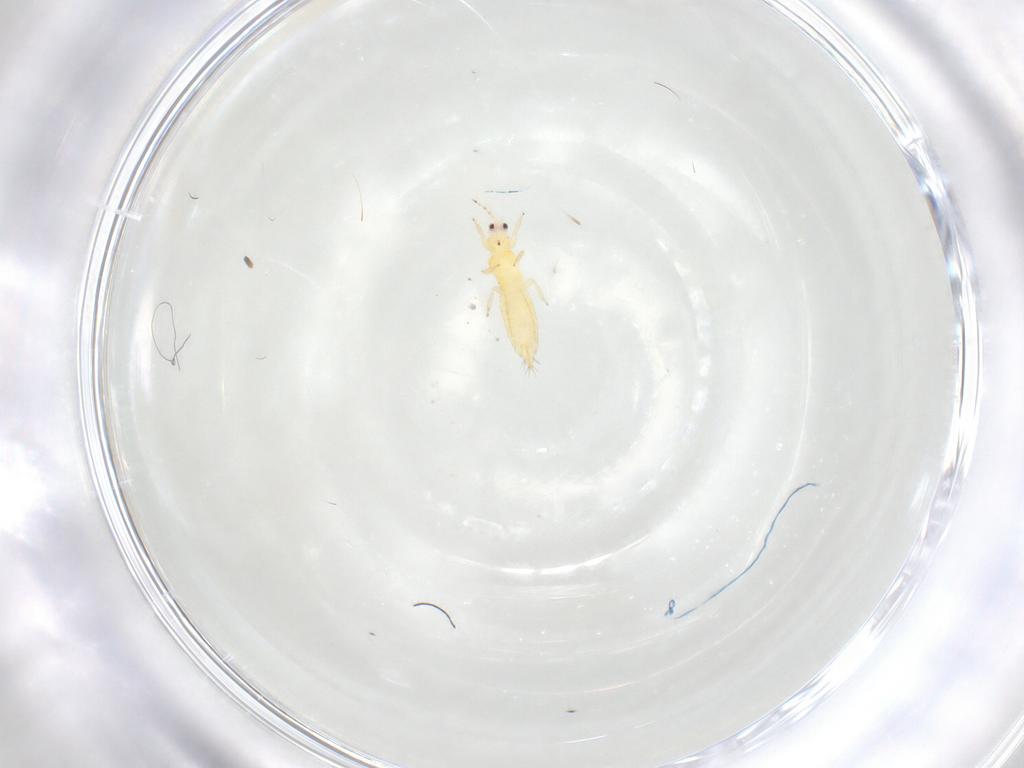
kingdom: Animalia
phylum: Arthropoda
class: Insecta
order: Thysanoptera
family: Thripidae
